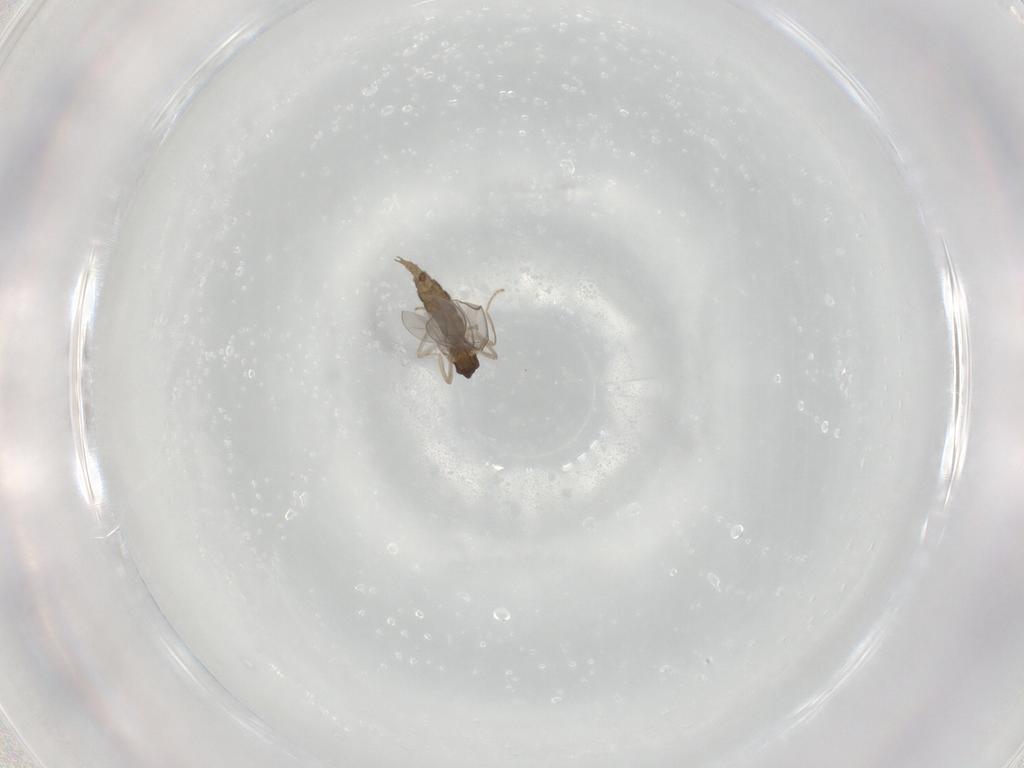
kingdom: Animalia
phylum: Arthropoda
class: Insecta
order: Diptera
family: Cecidomyiidae
